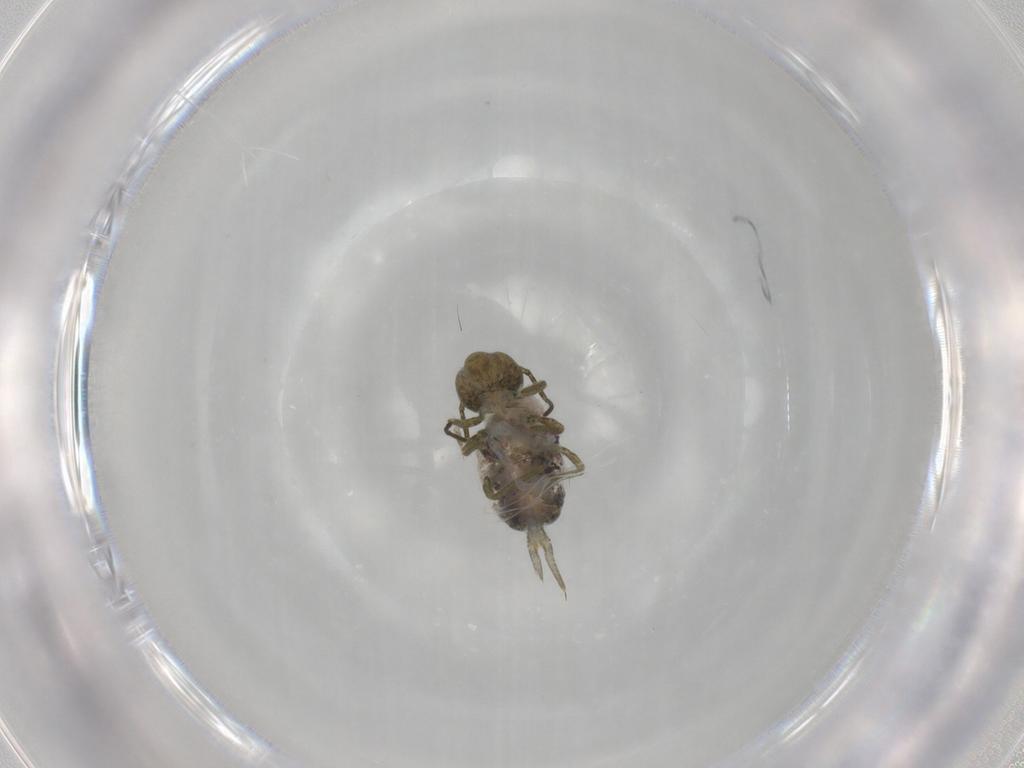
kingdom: Animalia
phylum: Arthropoda
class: Collembola
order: Symphypleona
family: Sminthuridae
